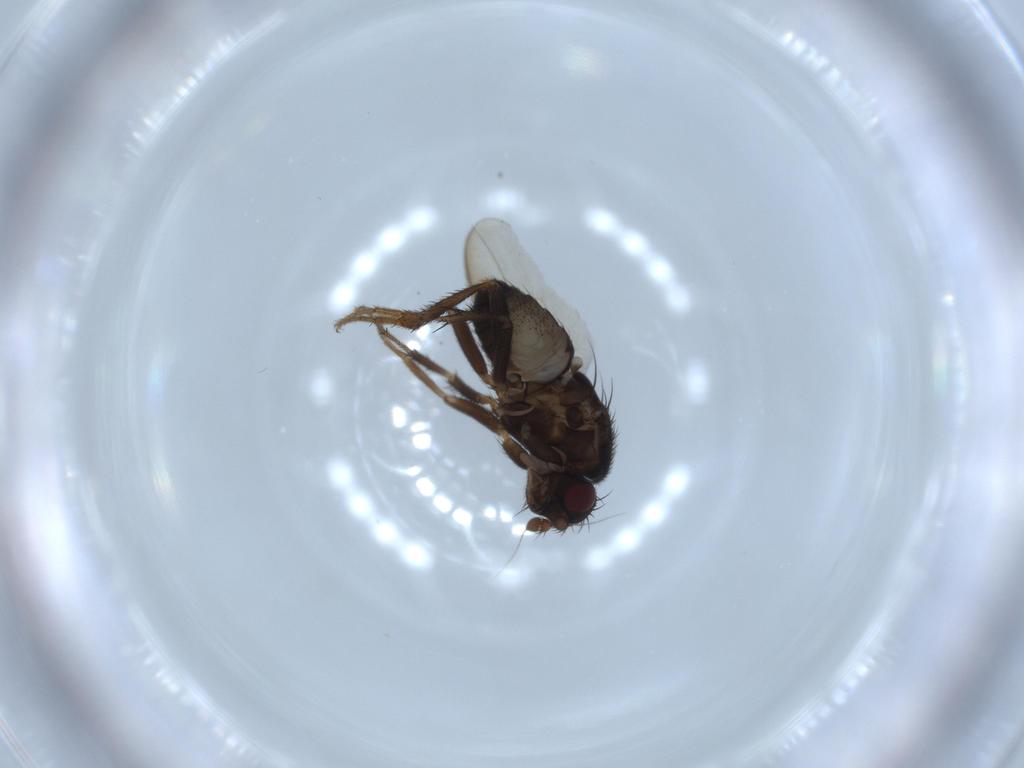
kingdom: Animalia
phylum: Arthropoda
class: Insecta
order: Diptera
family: Sphaeroceridae
